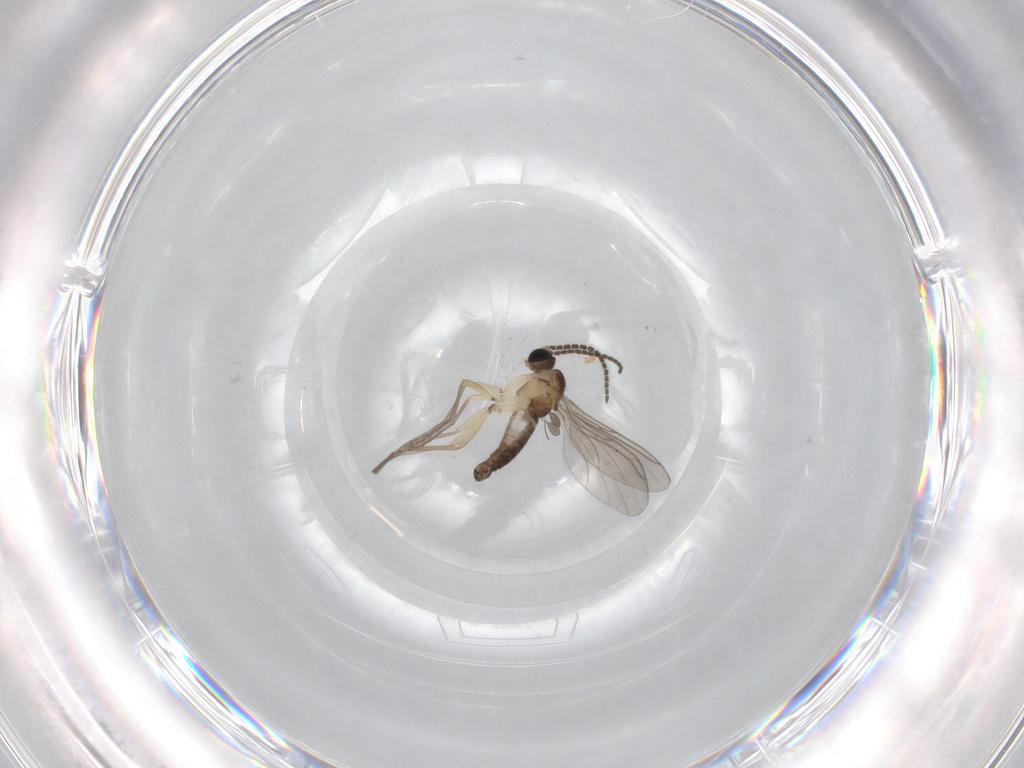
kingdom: Animalia
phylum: Arthropoda
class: Insecta
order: Diptera
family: Sciaridae
